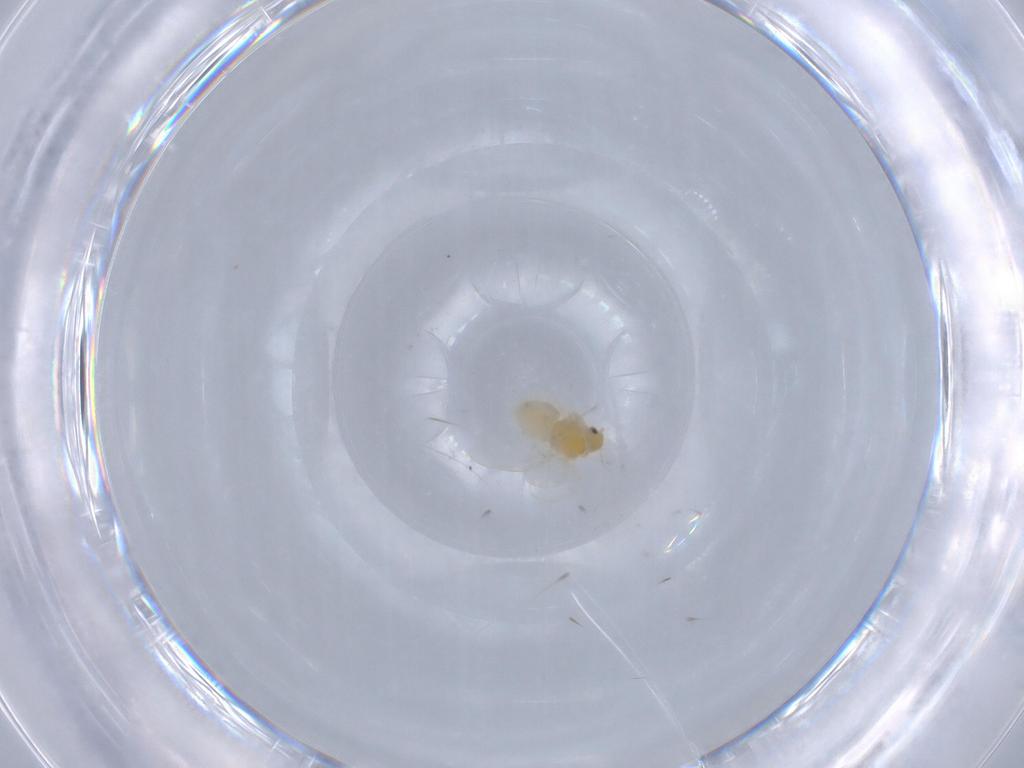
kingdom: Animalia
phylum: Arthropoda
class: Insecta
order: Hemiptera
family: Aleyrodidae
